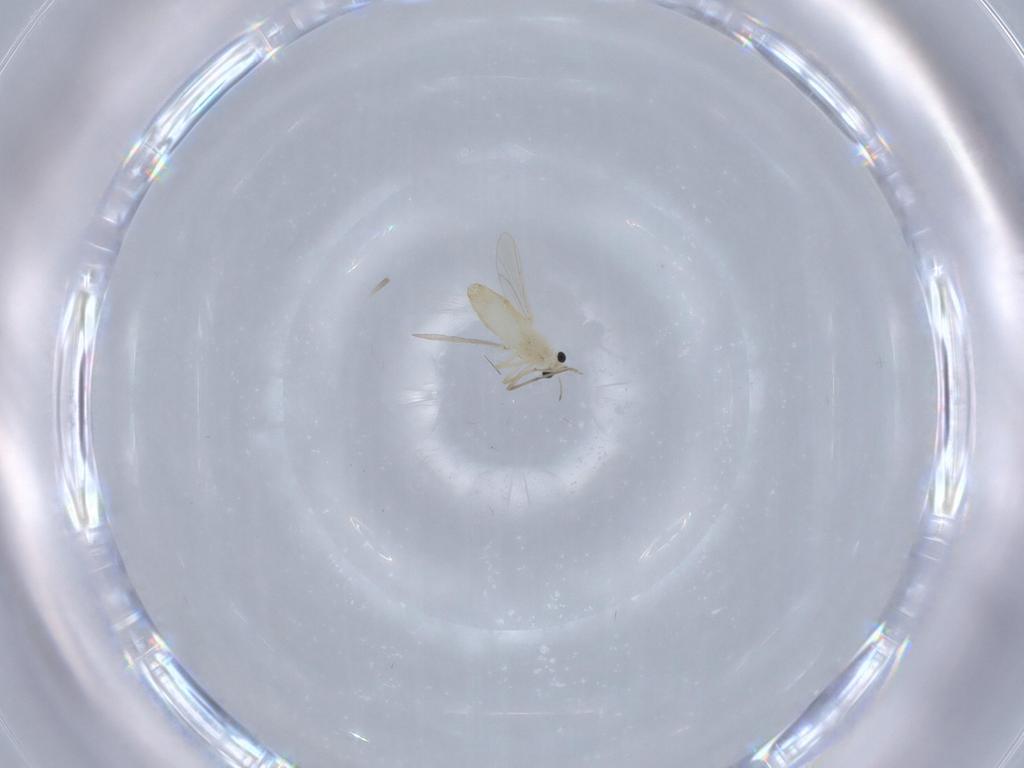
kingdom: Animalia
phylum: Arthropoda
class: Insecta
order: Diptera
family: Chironomidae
